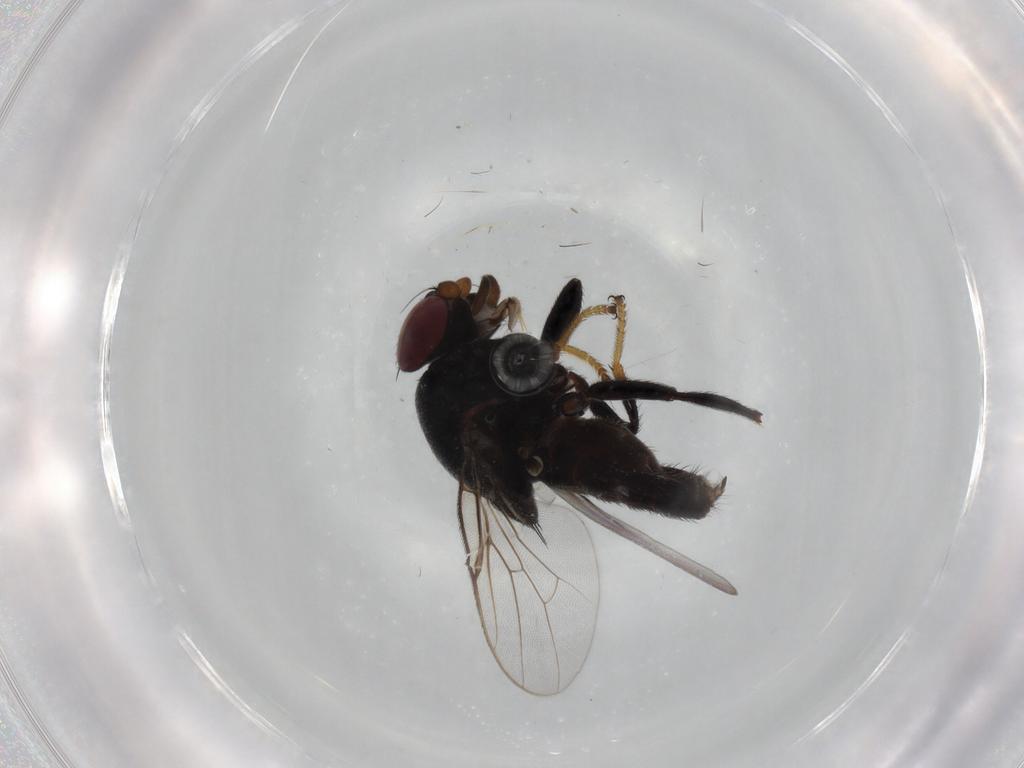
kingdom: Animalia
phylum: Arthropoda
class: Insecta
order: Diptera
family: Chloropidae
